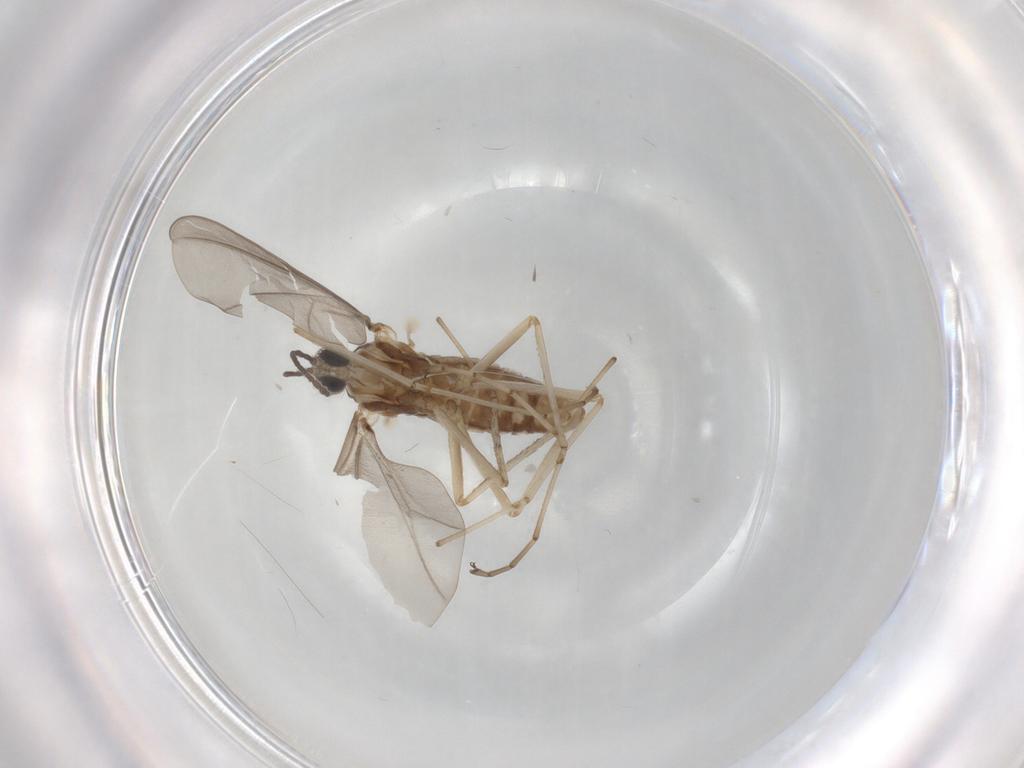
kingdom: Animalia
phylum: Arthropoda
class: Insecta
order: Diptera
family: Cecidomyiidae
